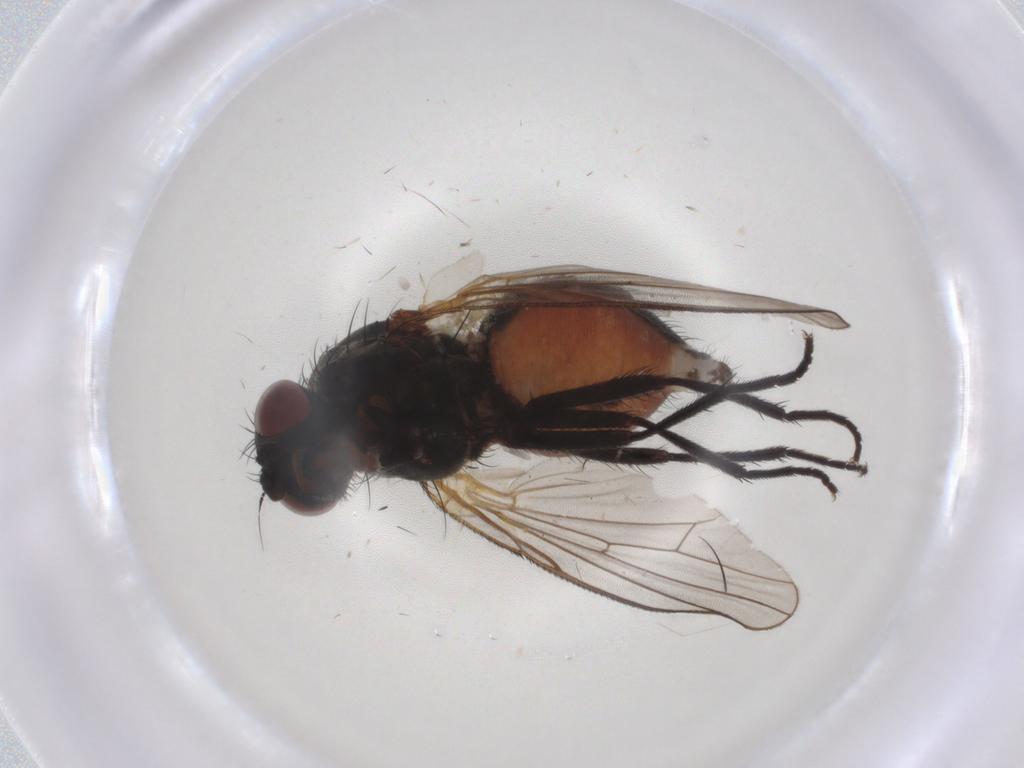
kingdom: Animalia
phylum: Arthropoda
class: Insecta
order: Diptera
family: Anthomyiidae
